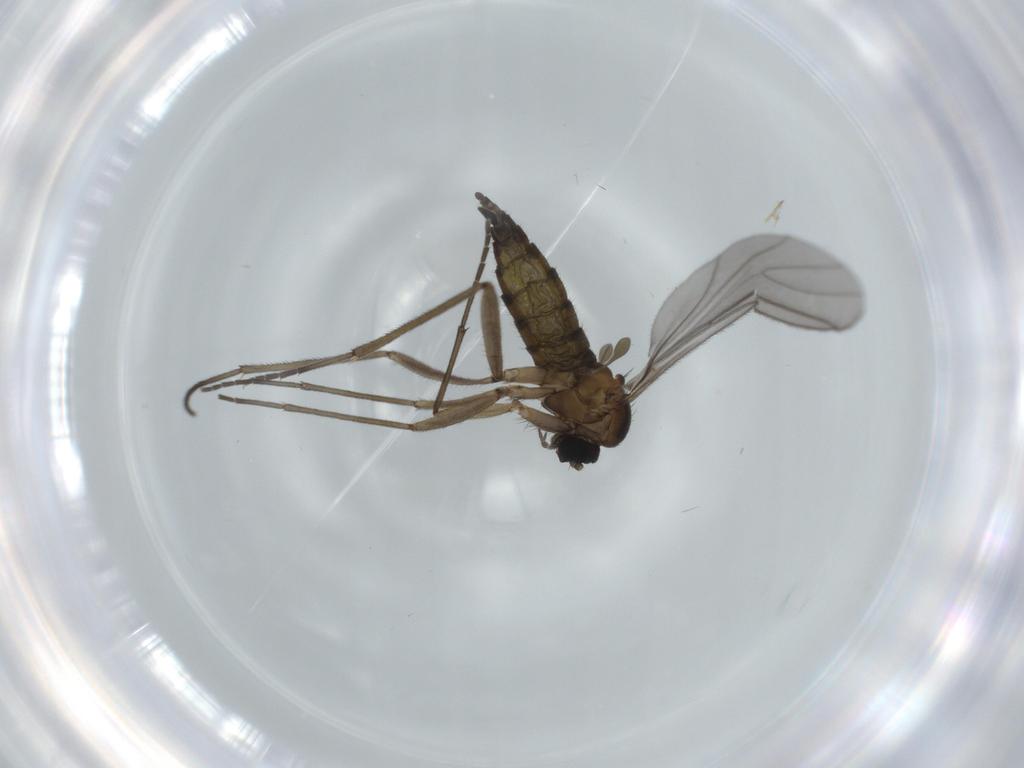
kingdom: Animalia
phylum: Arthropoda
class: Insecta
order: Diptera
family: Sciaridae
